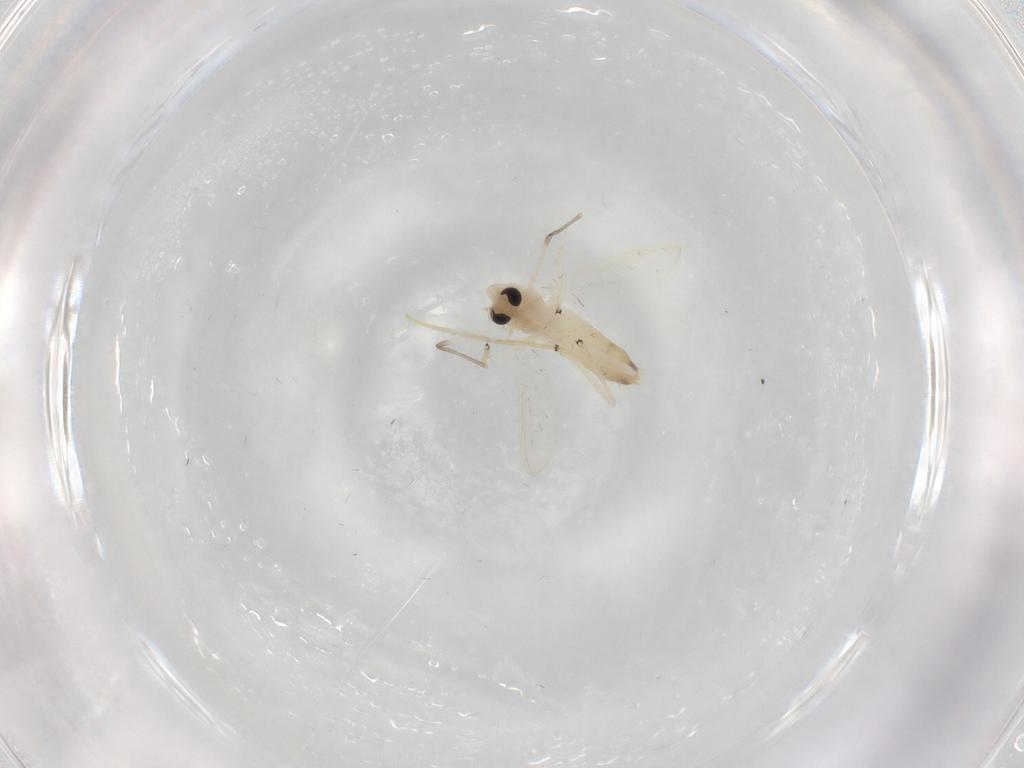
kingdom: Animalia
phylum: Arthropoda
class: Insecta
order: Diptera
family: Chironomidae
